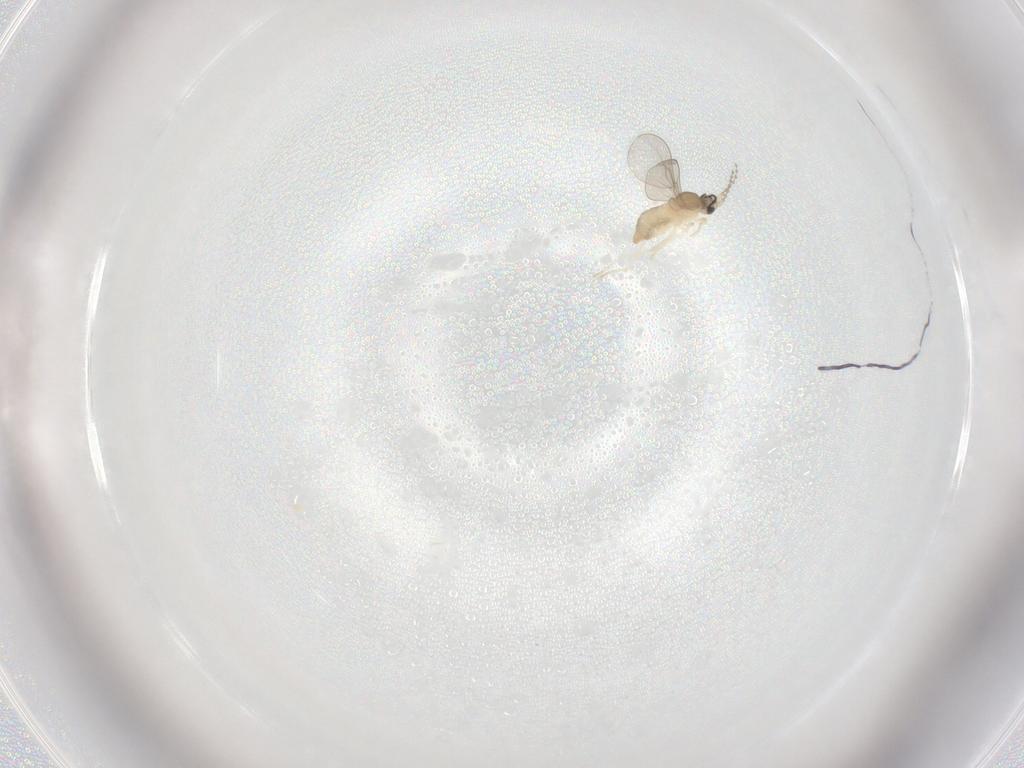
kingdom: Animalia
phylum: Arthropoda
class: Insecta
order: Diptera
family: Cecidomyiidae
